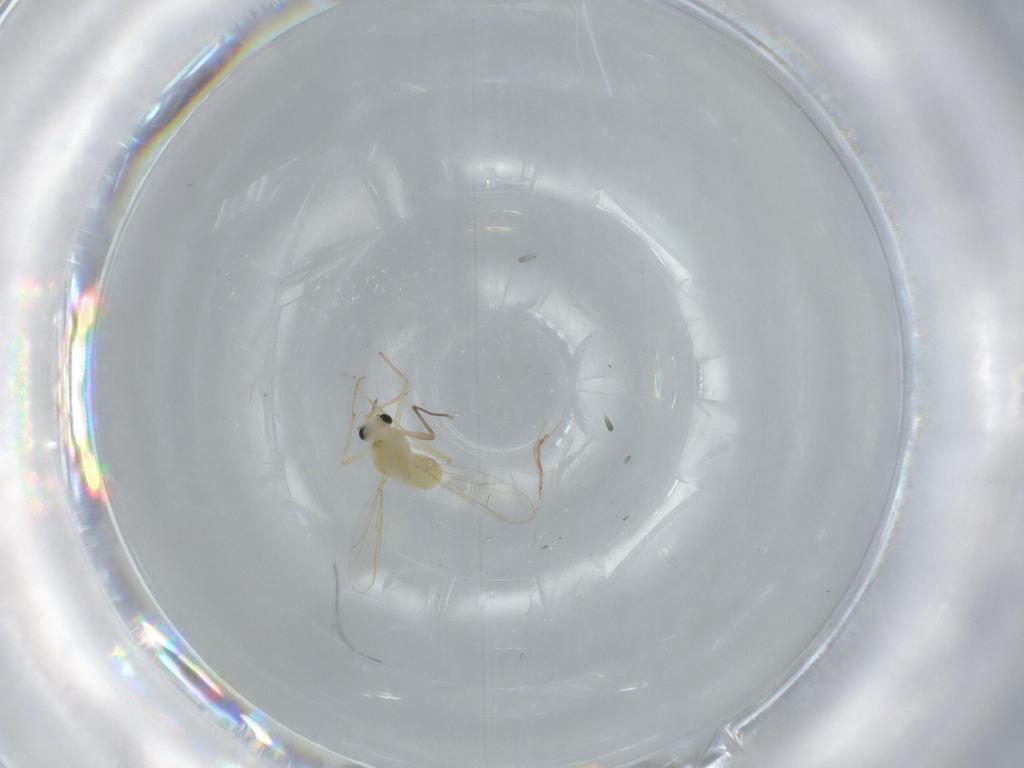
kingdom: Animalia
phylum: Arthropoda
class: Insecta
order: Diptera
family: Chironomidae
